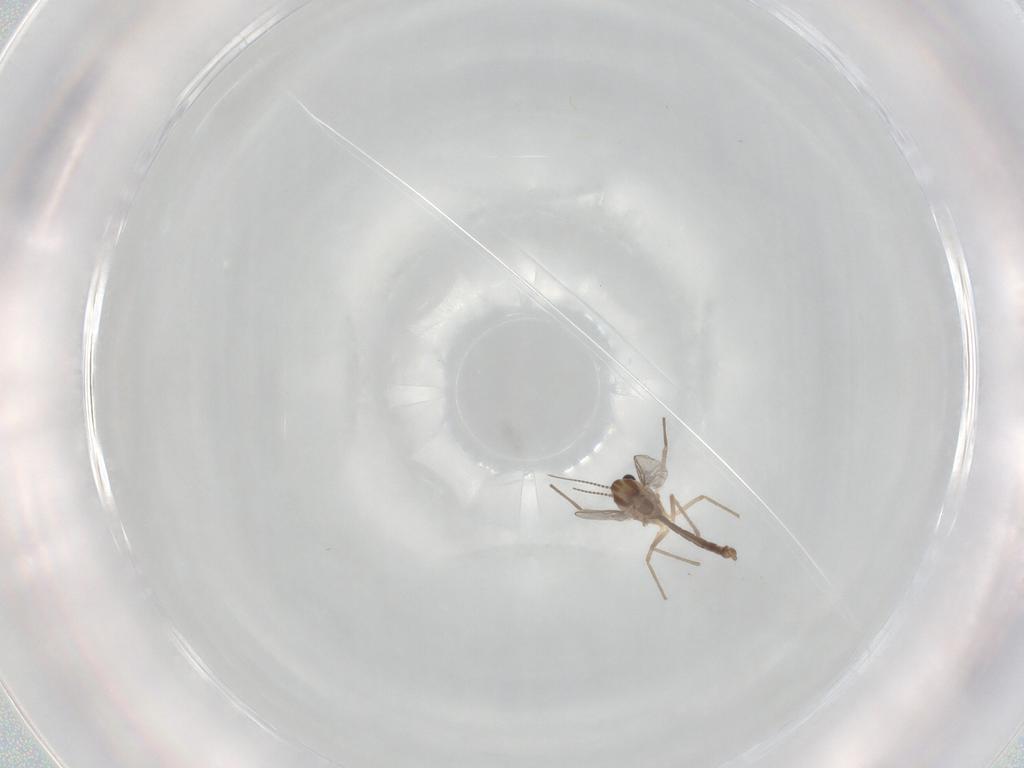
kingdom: Animalia
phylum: Arthropoda
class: Insecta
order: Diptera
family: Chironomidae
